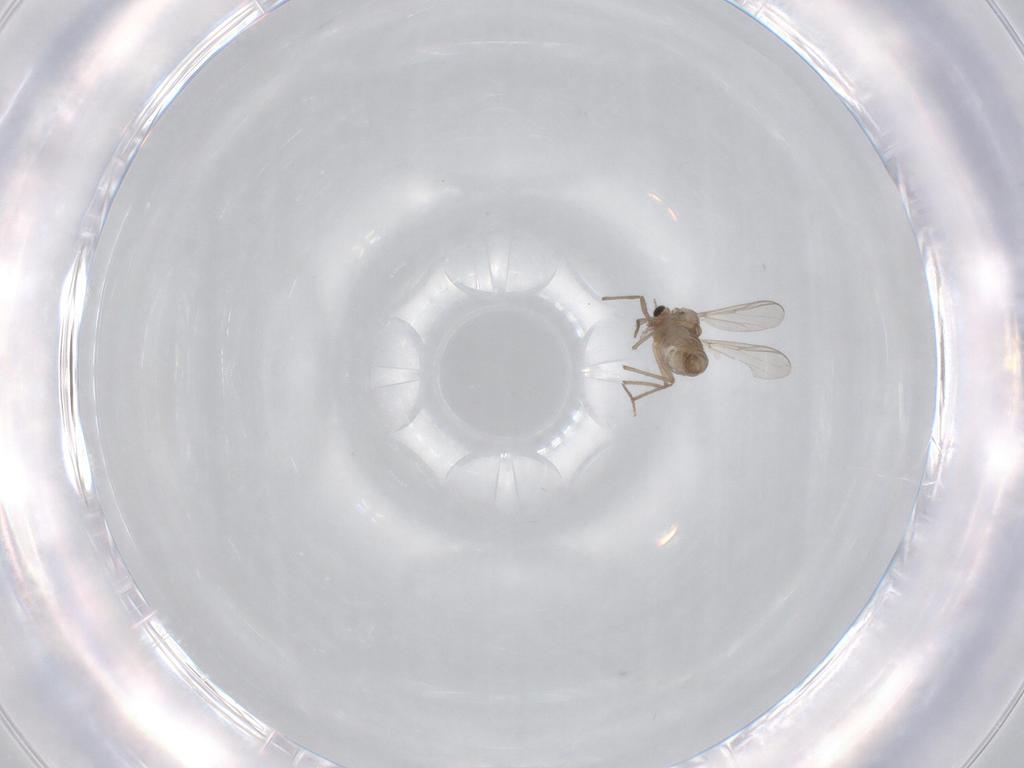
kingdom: Animalia
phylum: Arthropoda
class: Insecta
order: Diptera
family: Chironomidae
